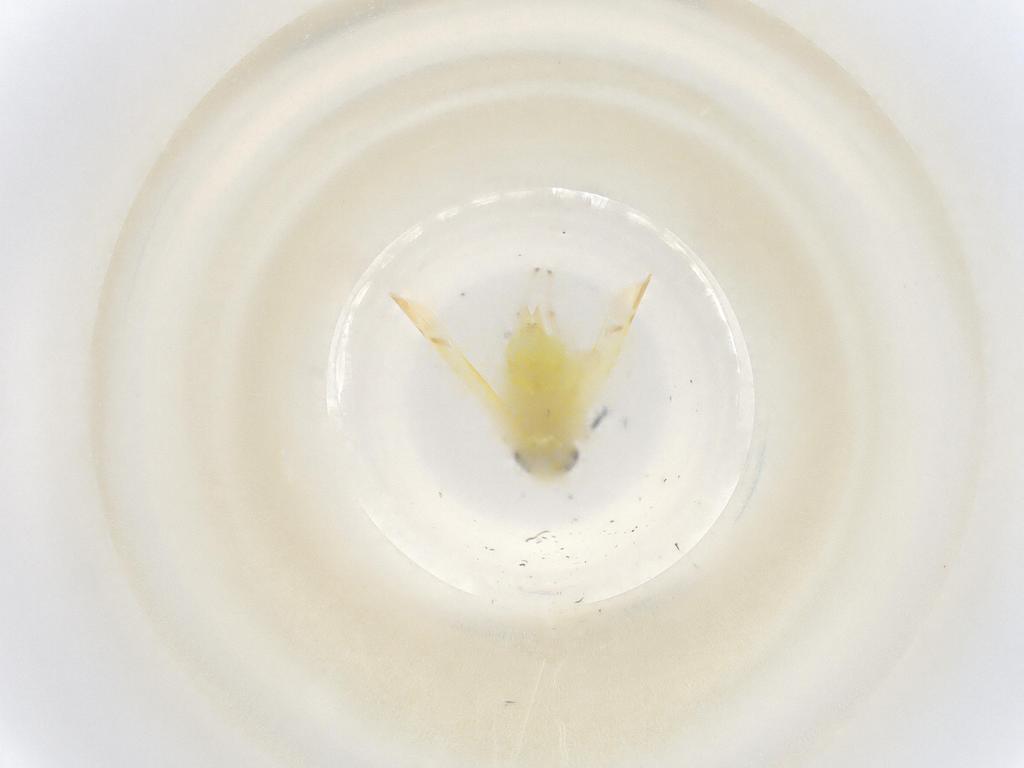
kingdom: Animalia
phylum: Arthropoda
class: Insecta
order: Hemiptera
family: Cicadellidae
